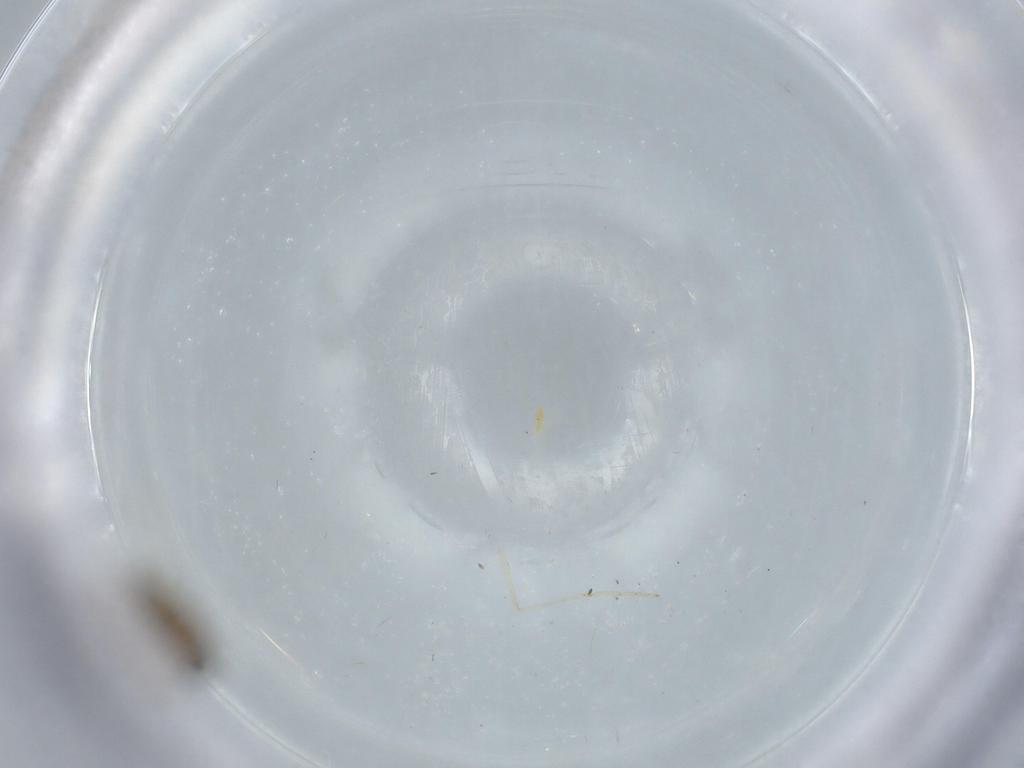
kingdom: Animalia
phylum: Arthropoda
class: Insecta
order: Diptera
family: Cecidomyiidae
